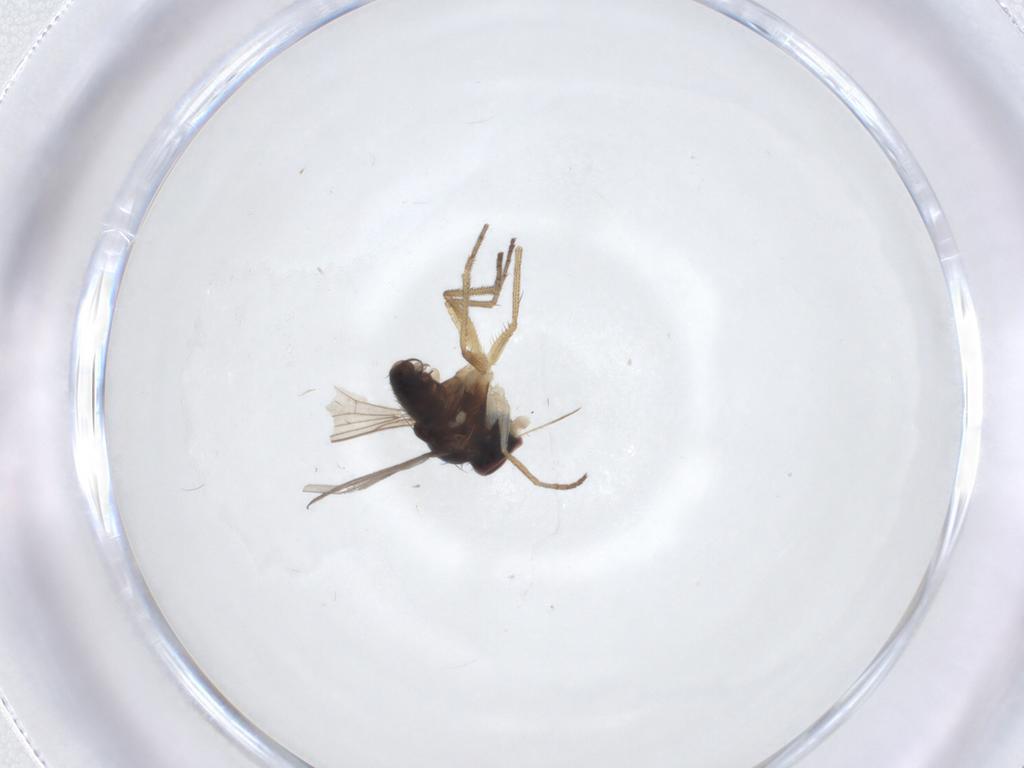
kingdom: Animalia
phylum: Arthropoda
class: Insecta
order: Diptera
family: Dolichopodidae
